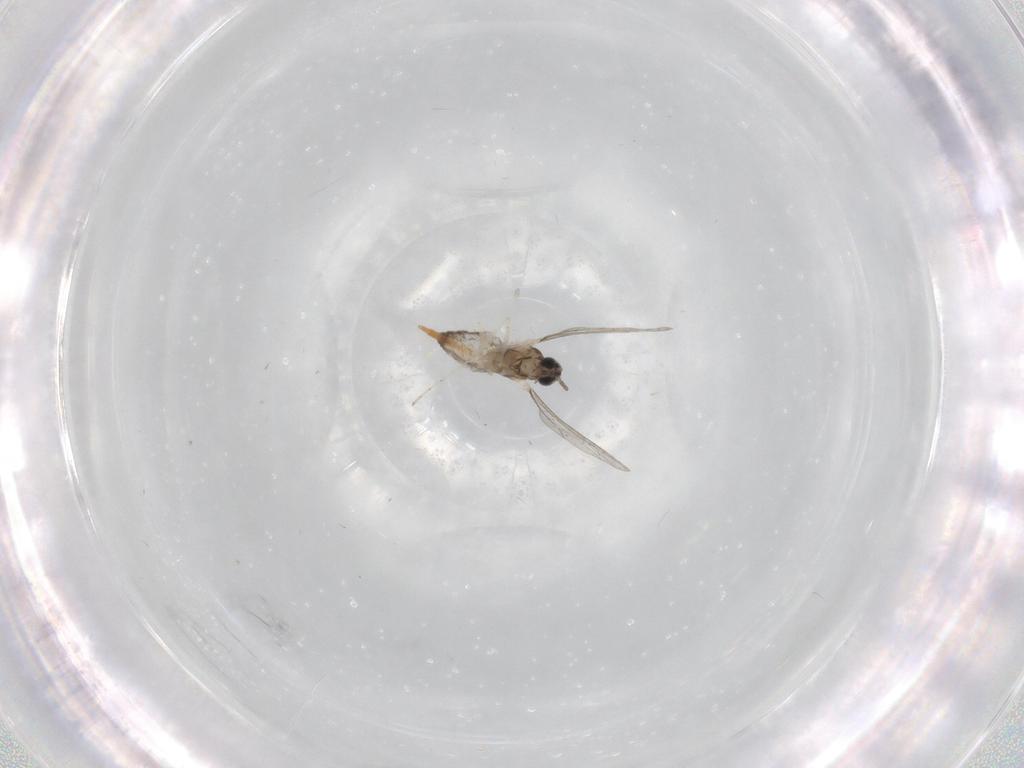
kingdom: Animalia
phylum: Arthropoda
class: Insecta
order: Diptera
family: Cecidomyiidae
